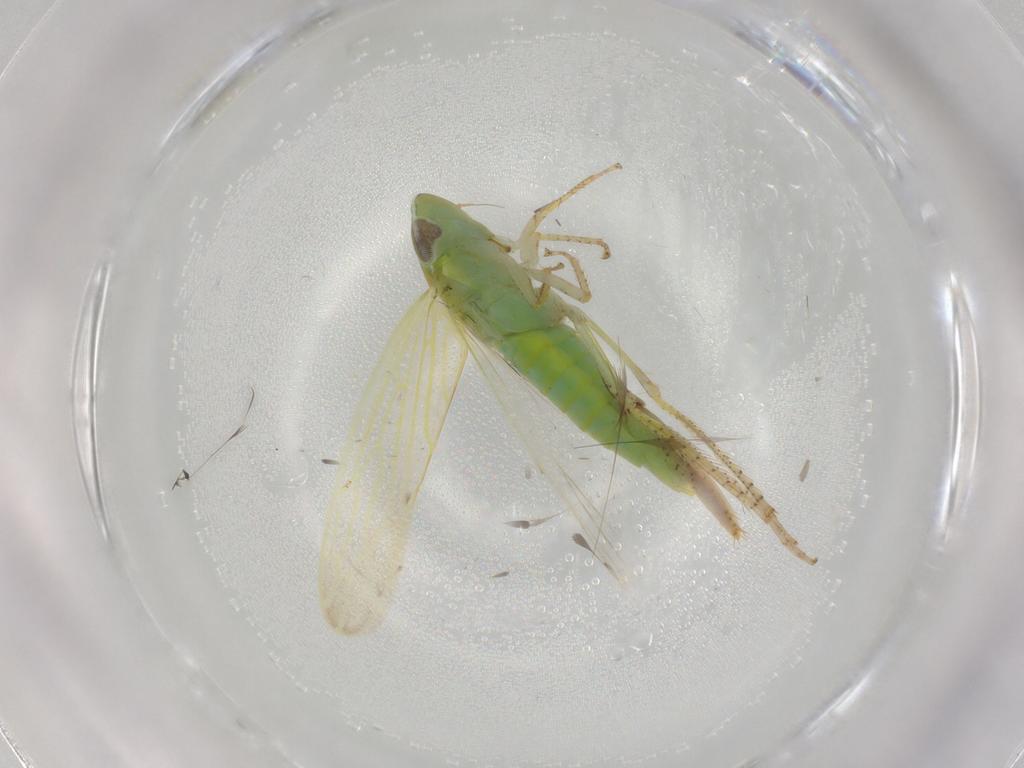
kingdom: Animalia
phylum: Arthropoda
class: Insecta
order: Hemiptera
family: Cicadellidae
